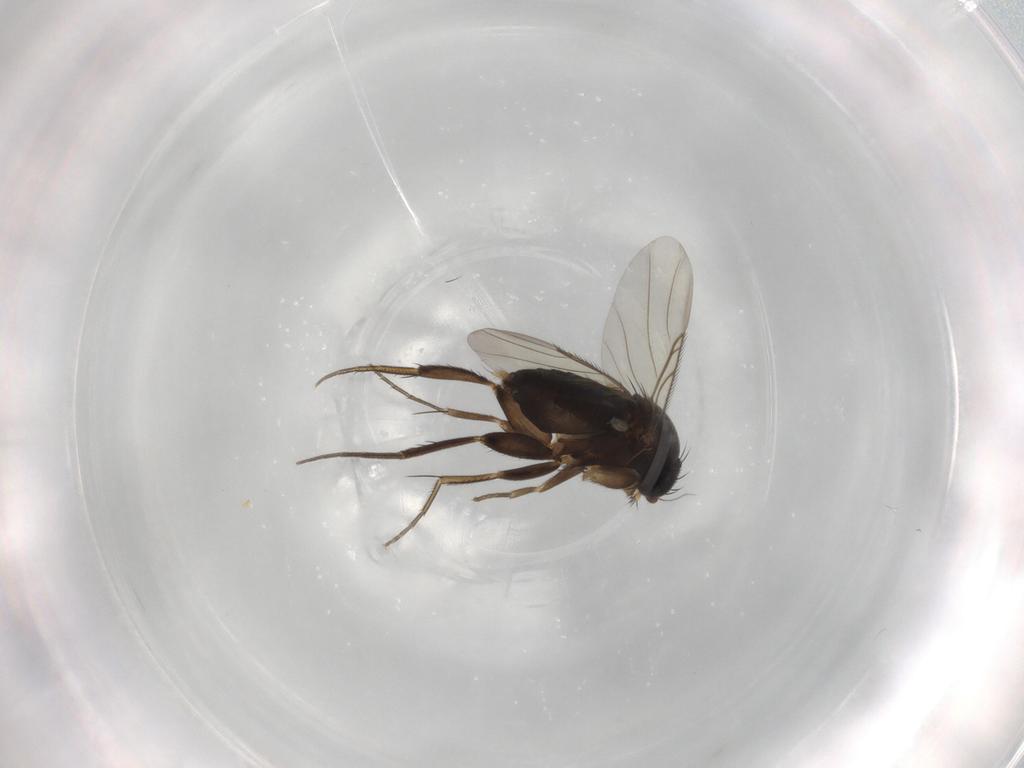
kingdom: Animalia
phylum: Arthropoda
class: Insecta
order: Diptera
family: Phoridae
